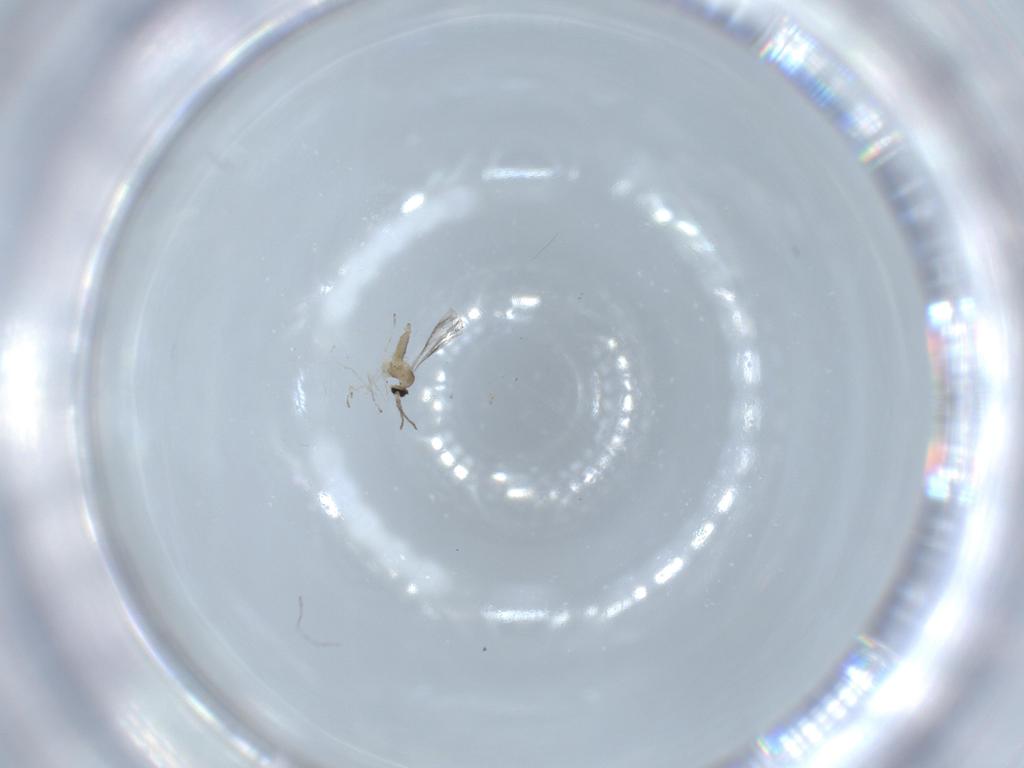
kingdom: Animalia
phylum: Arthropoda
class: Insecta
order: Diptera
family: Cecidomyiidae
